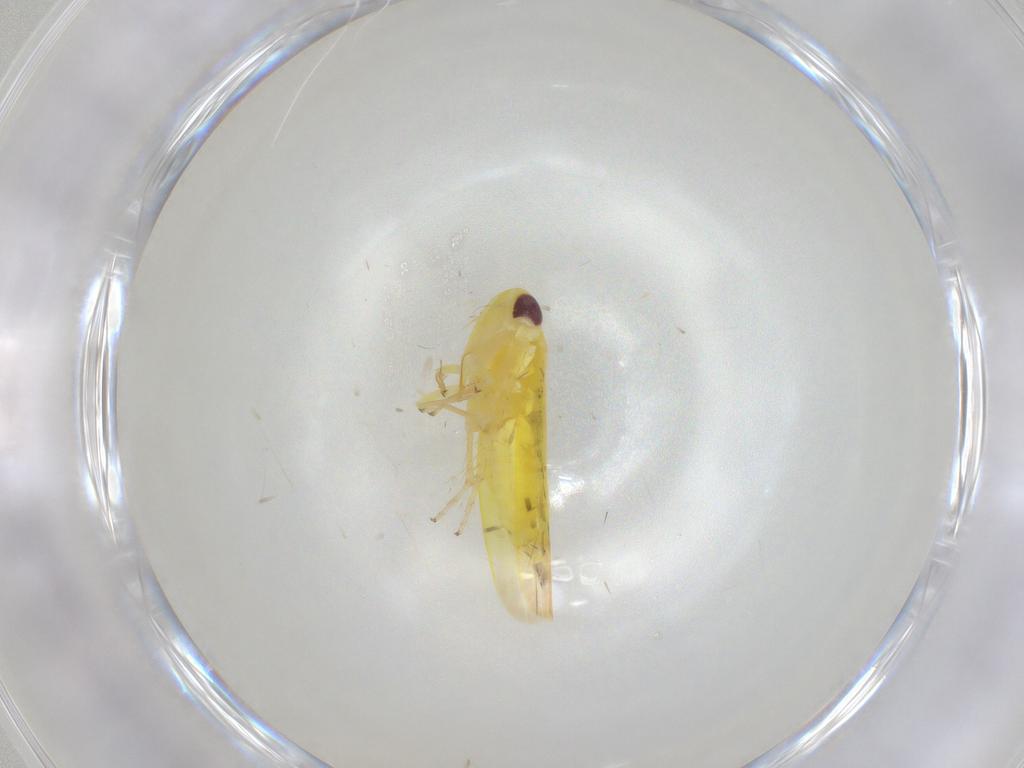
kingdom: Animalia
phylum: Arthropoda
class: Insecta
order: Hemiptera
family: Cicadellidae
